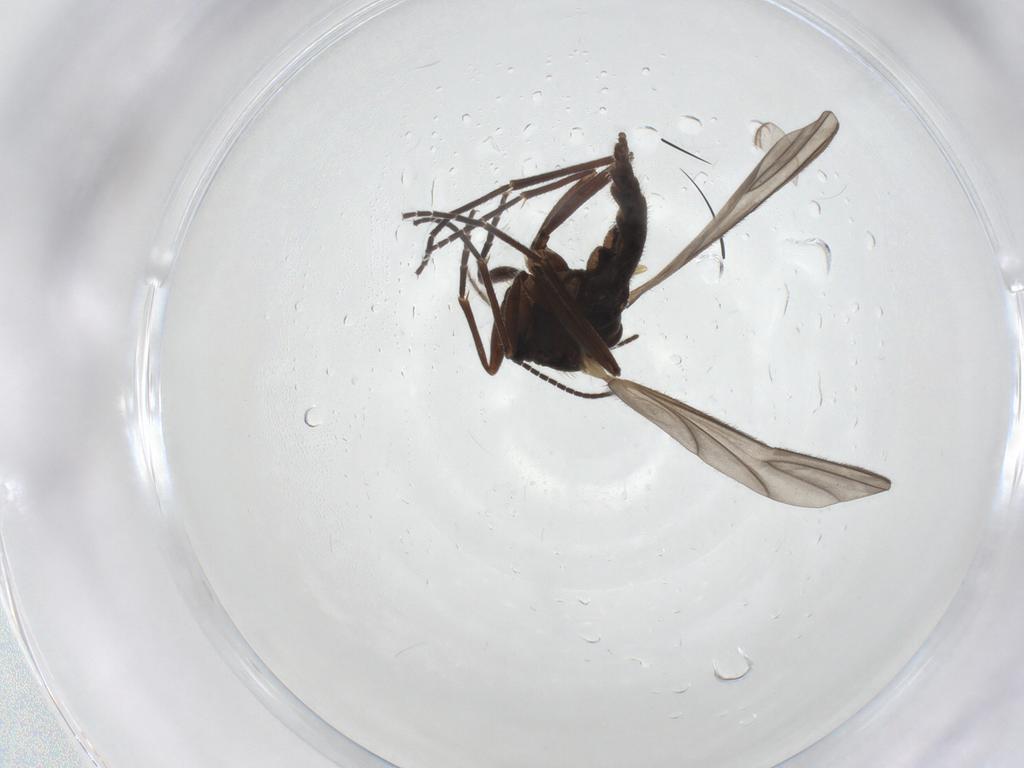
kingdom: Animalia
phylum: Arthropoda
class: Insecta
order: Diptera
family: Sciaridae
